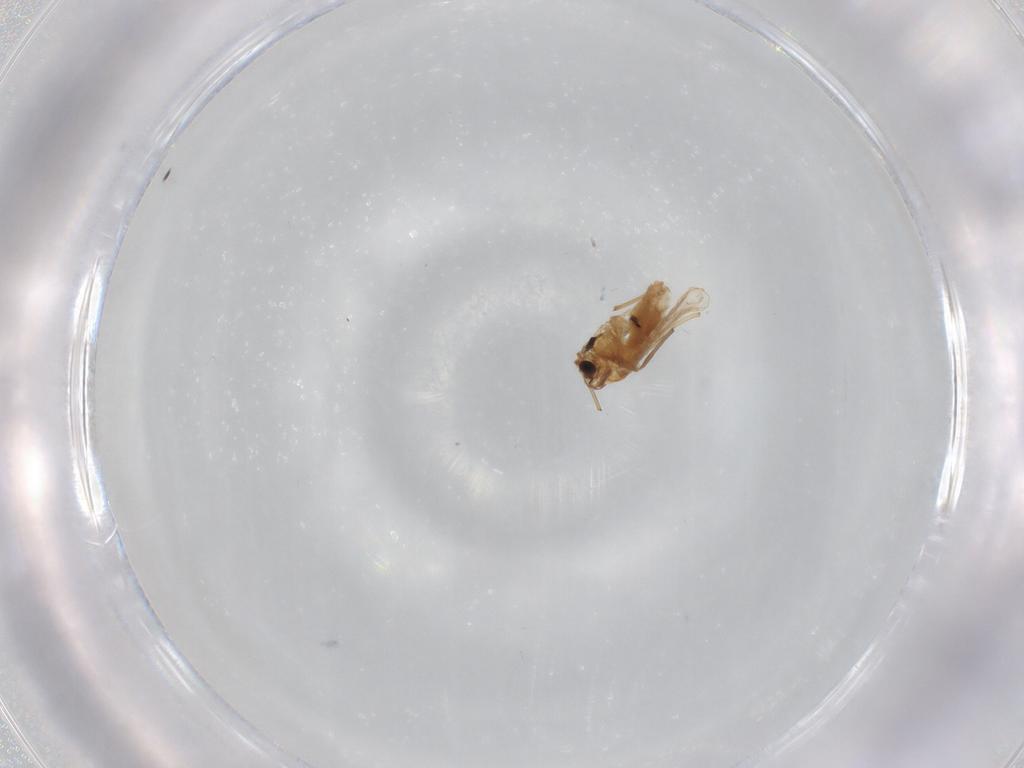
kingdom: Animalia
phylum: Arthropoda
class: Insecta
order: Diptera
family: Chironomidae
